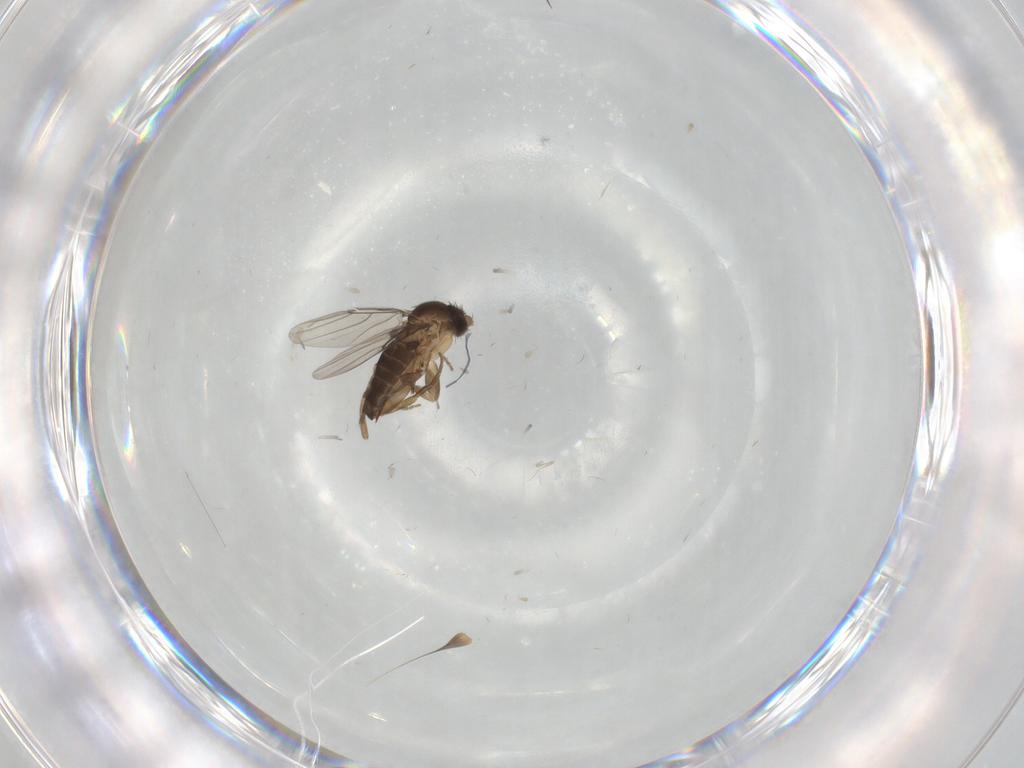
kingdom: Animalia
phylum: Arthropoda
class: Insecta
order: Diptera
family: Phoridae
